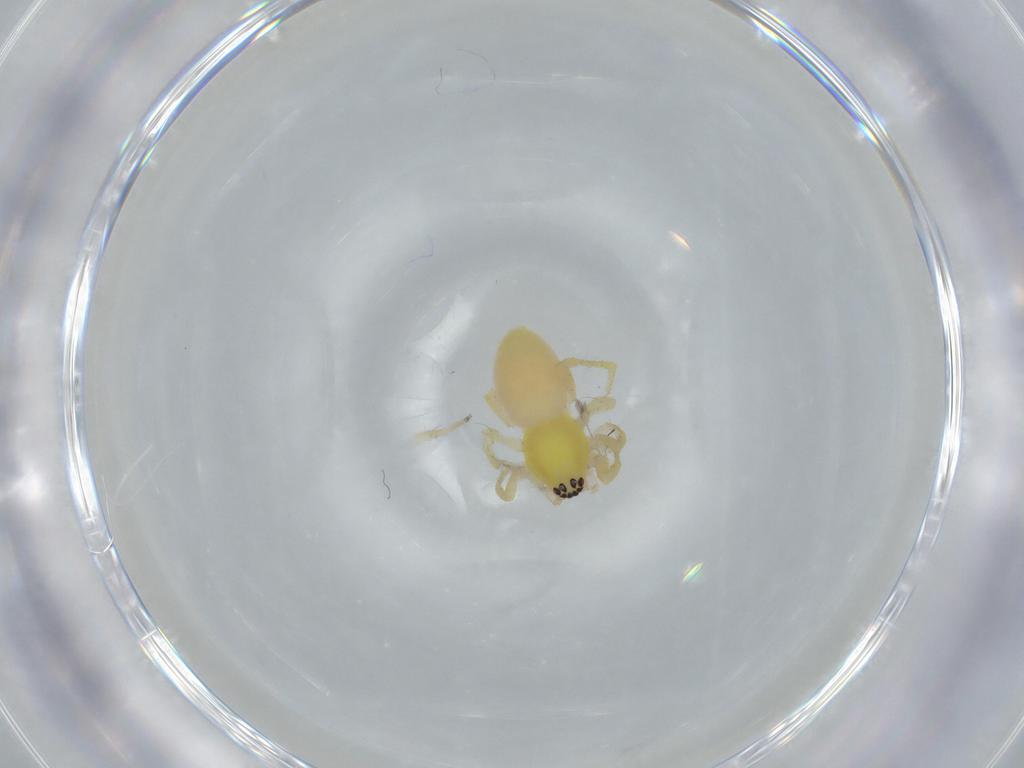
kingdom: Animalia
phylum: Arthropoda
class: Arachnida
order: Araneae
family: Anyphaenidae
